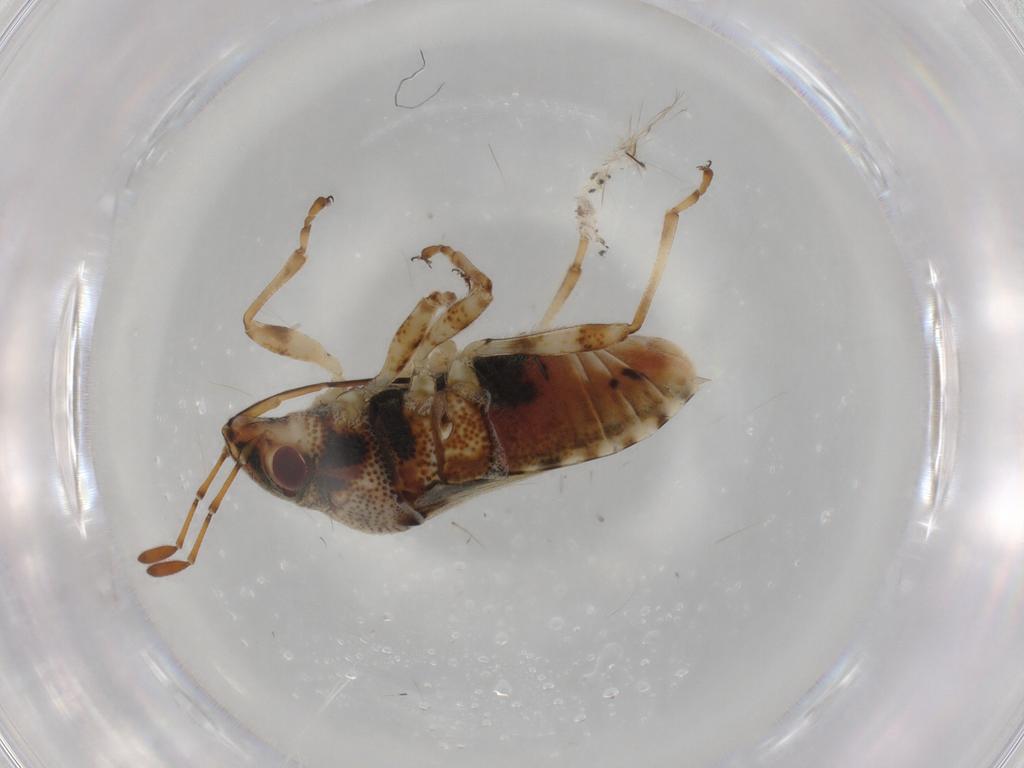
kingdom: Animalia
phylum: Arthropoda
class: Insecta
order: Hemiptera
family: Lygaeidae
